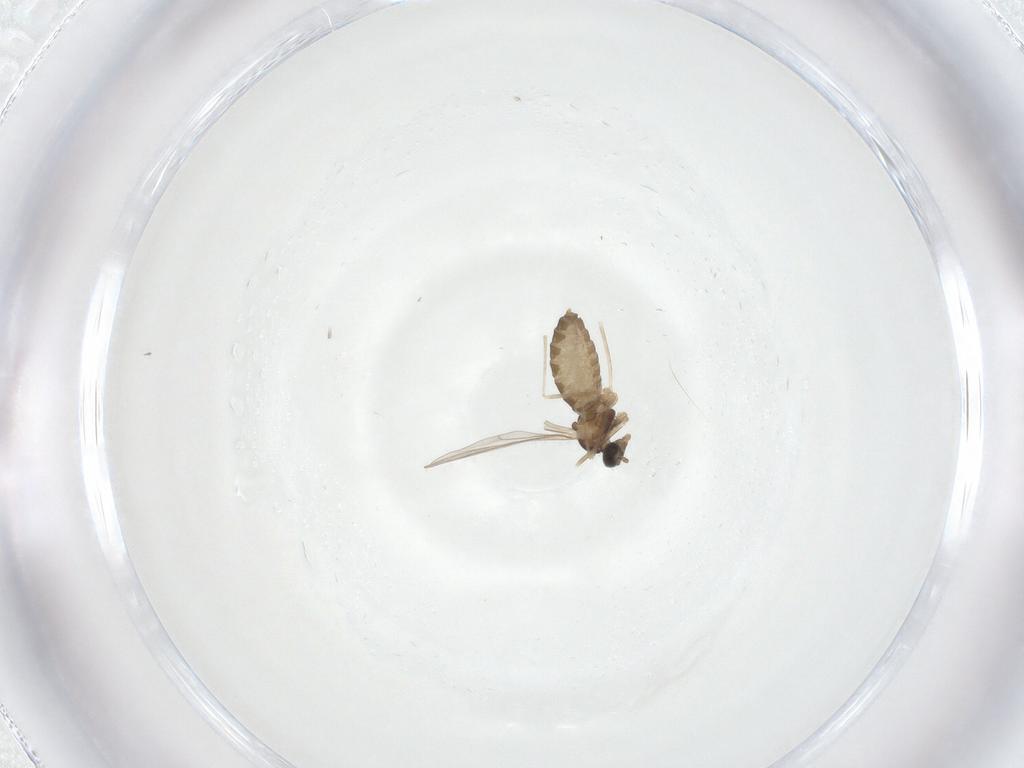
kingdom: Animalia
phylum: Arthropoda
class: Insecta
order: Diptera
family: Cecidomyiidae
